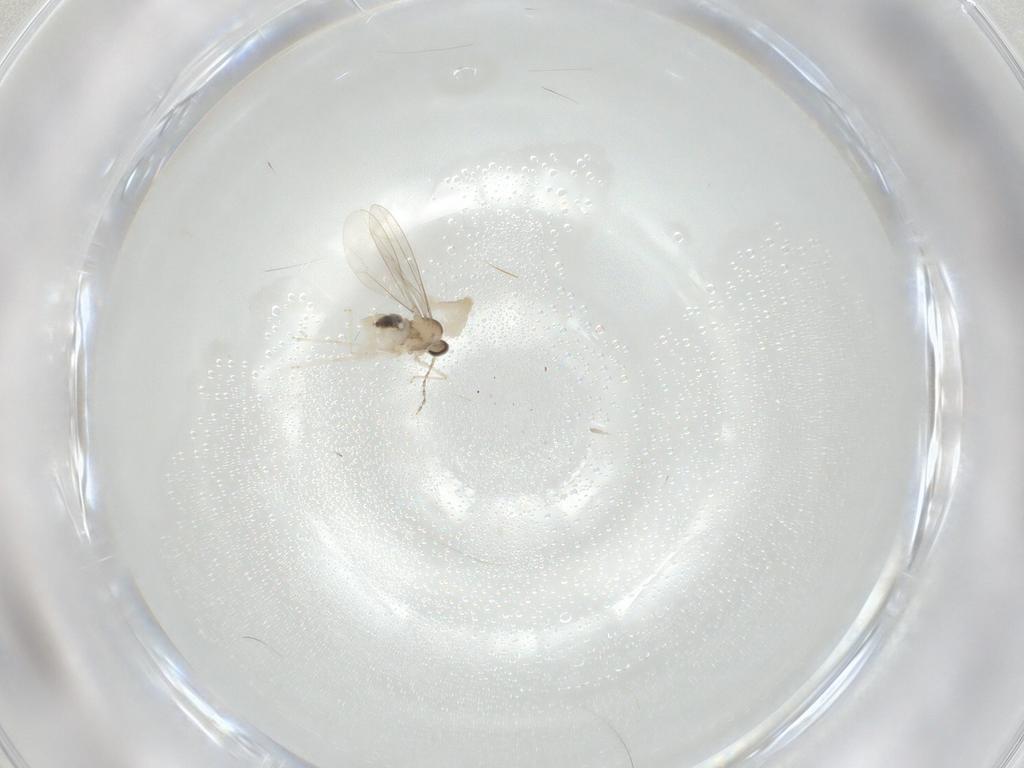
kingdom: Animalia
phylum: Arthropoda
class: Insecta
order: Diptera
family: Cecidomyiidae
